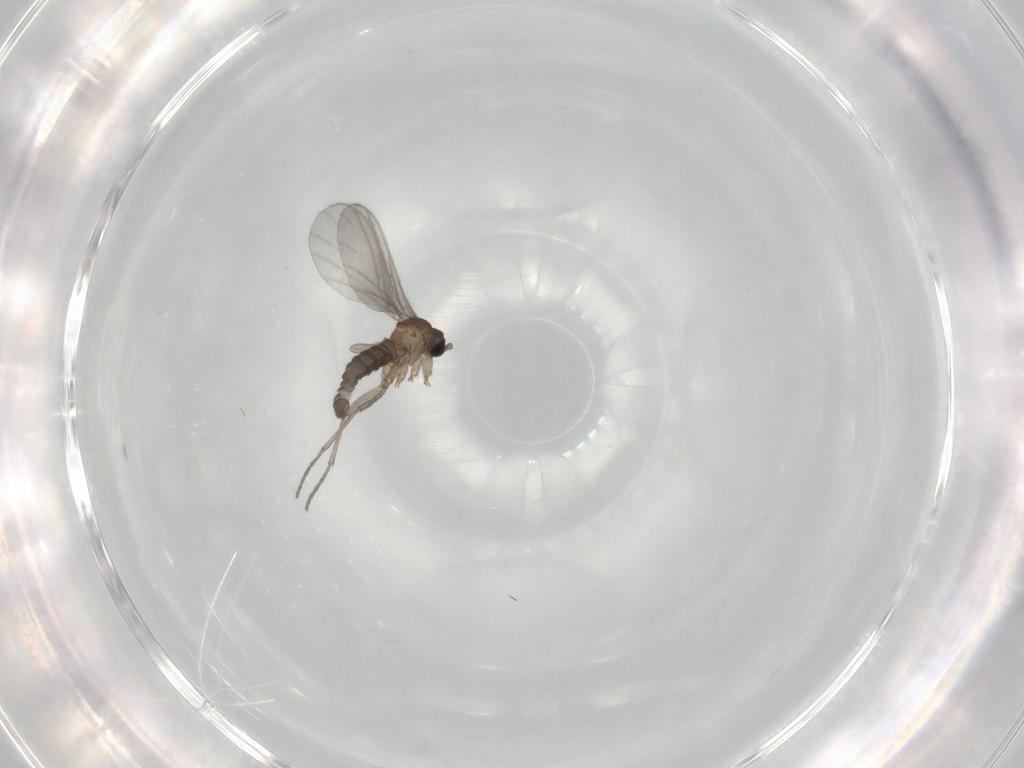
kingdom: Animalia
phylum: Arthropoda
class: Insecta
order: Diptera
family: Sciaridae
